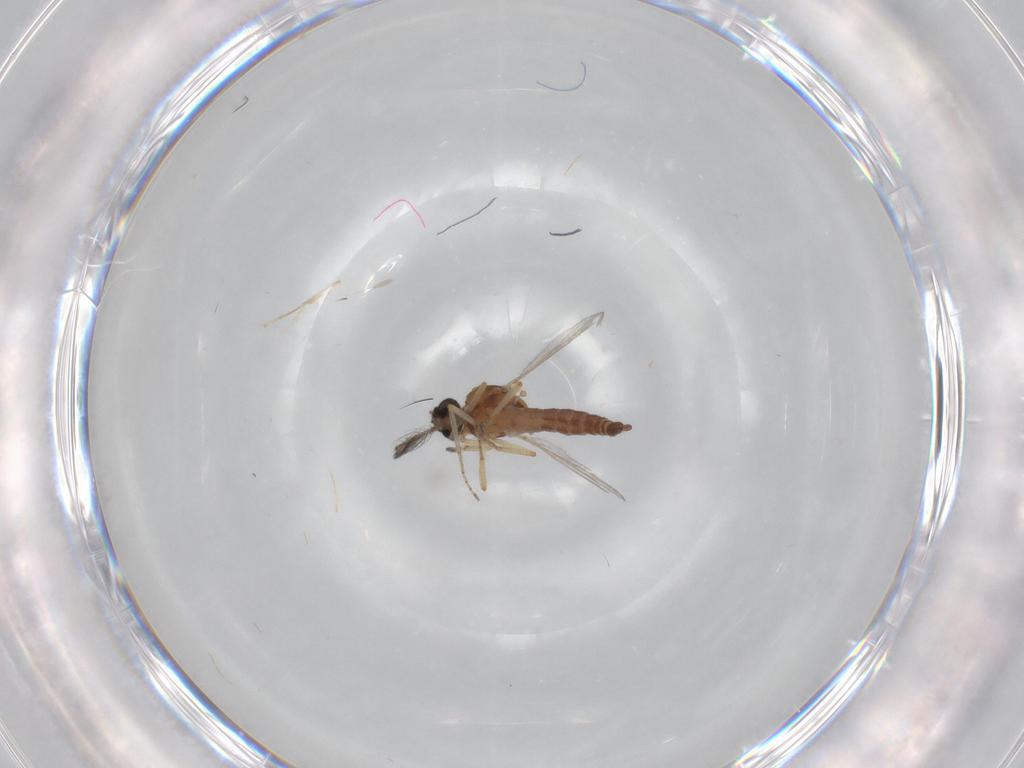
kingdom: Animalia
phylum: Arthropoda
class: Insecta
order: Diptera
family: Ceratopogonidae
